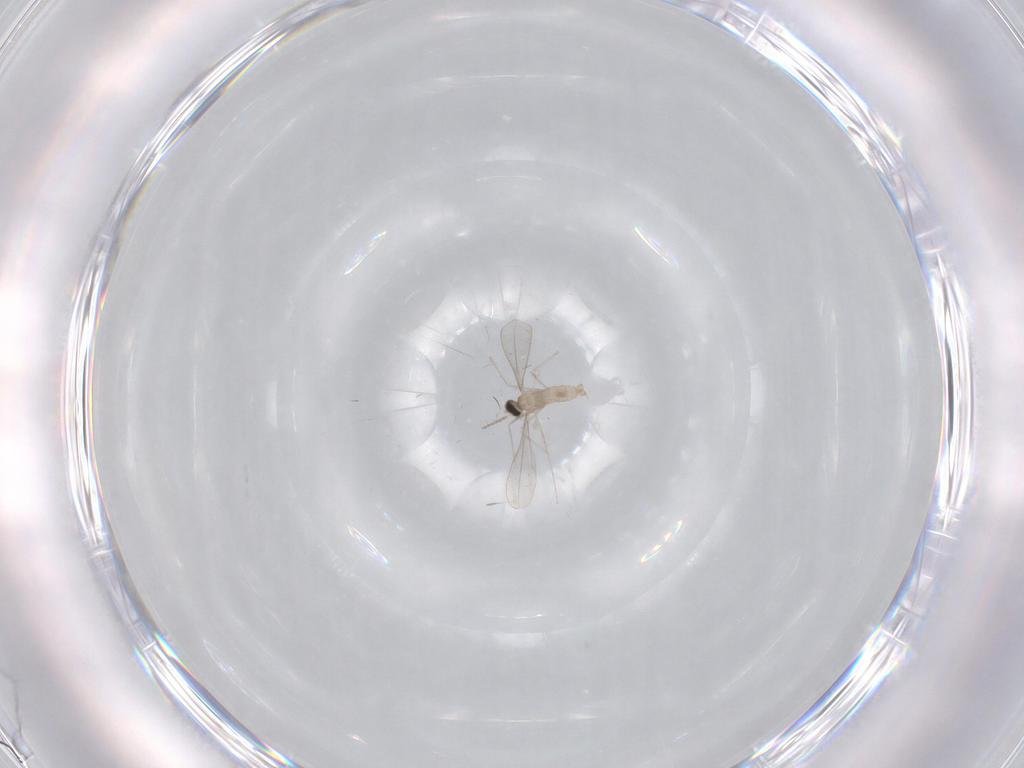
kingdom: Animalia
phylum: Arthropoda
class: Insecta
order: Diptera
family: Cecidomyiidae
